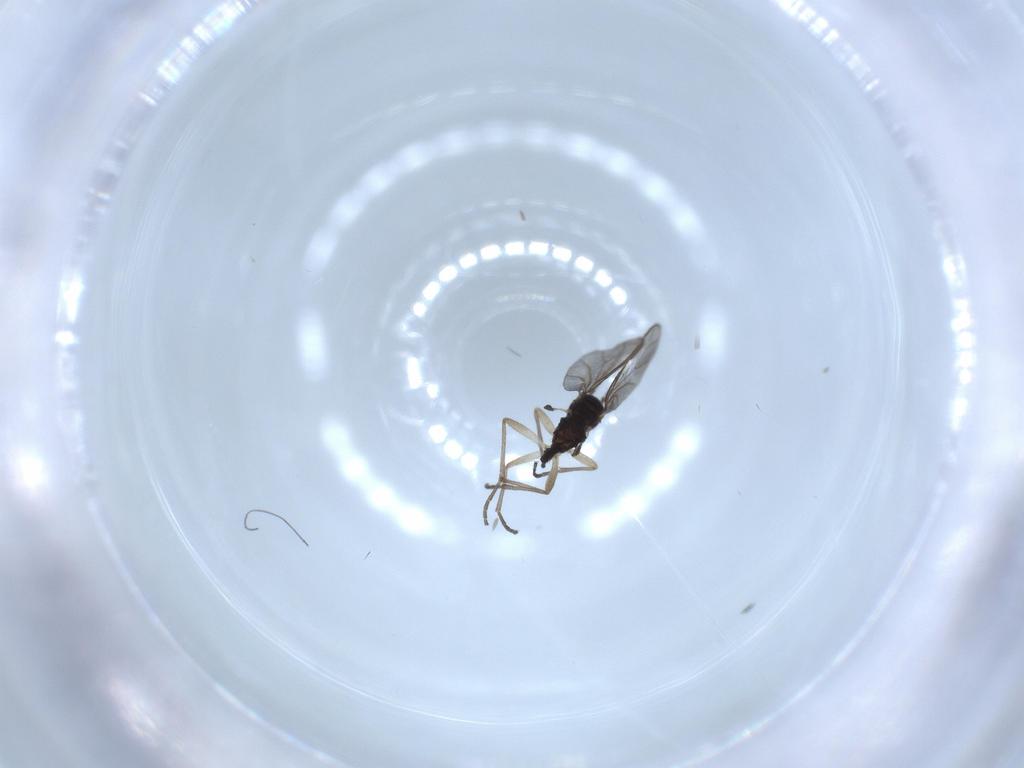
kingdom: Animalia
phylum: Arthropoda
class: Insecta
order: Diptera
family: Sciaridae
